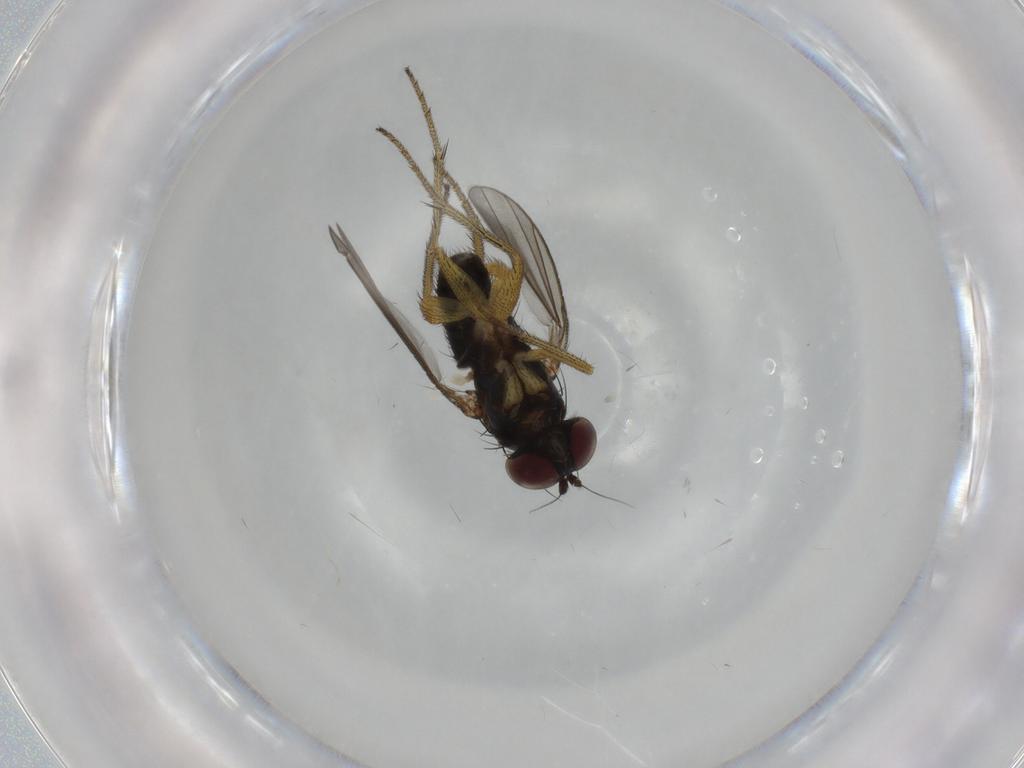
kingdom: Animalia
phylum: Arthropoda
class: Insecta
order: Diptera
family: Dolichopodidae
